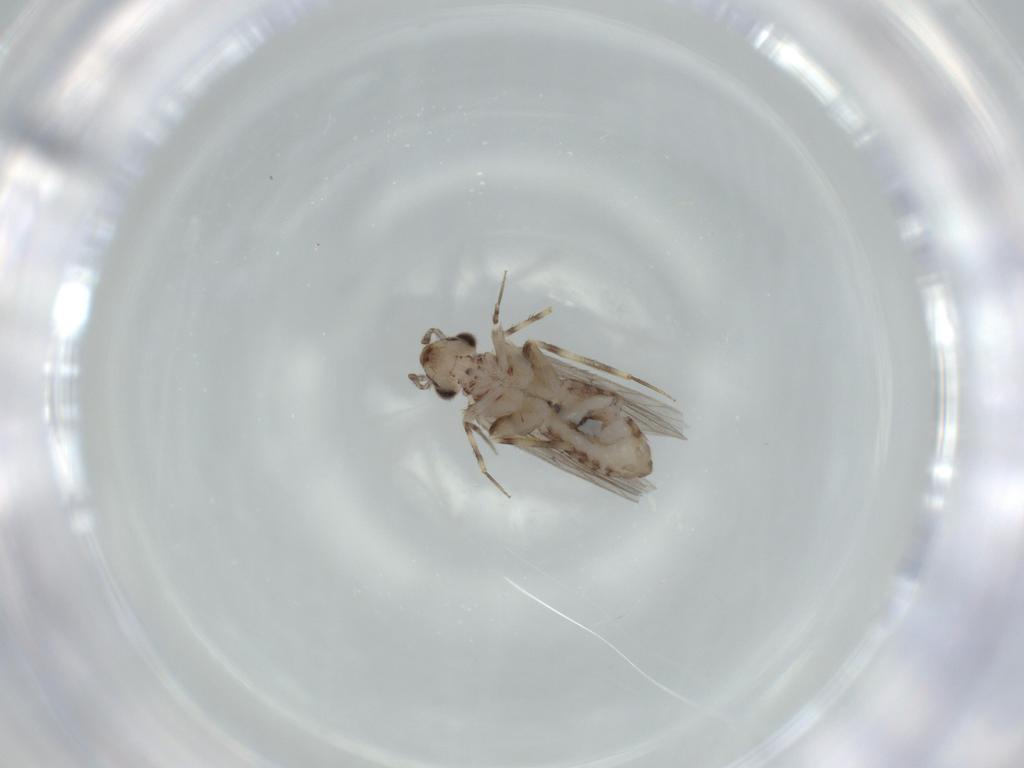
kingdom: Animalia
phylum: Arthropoda
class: Insecta
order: Psocodea
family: Lepidopsocidae
